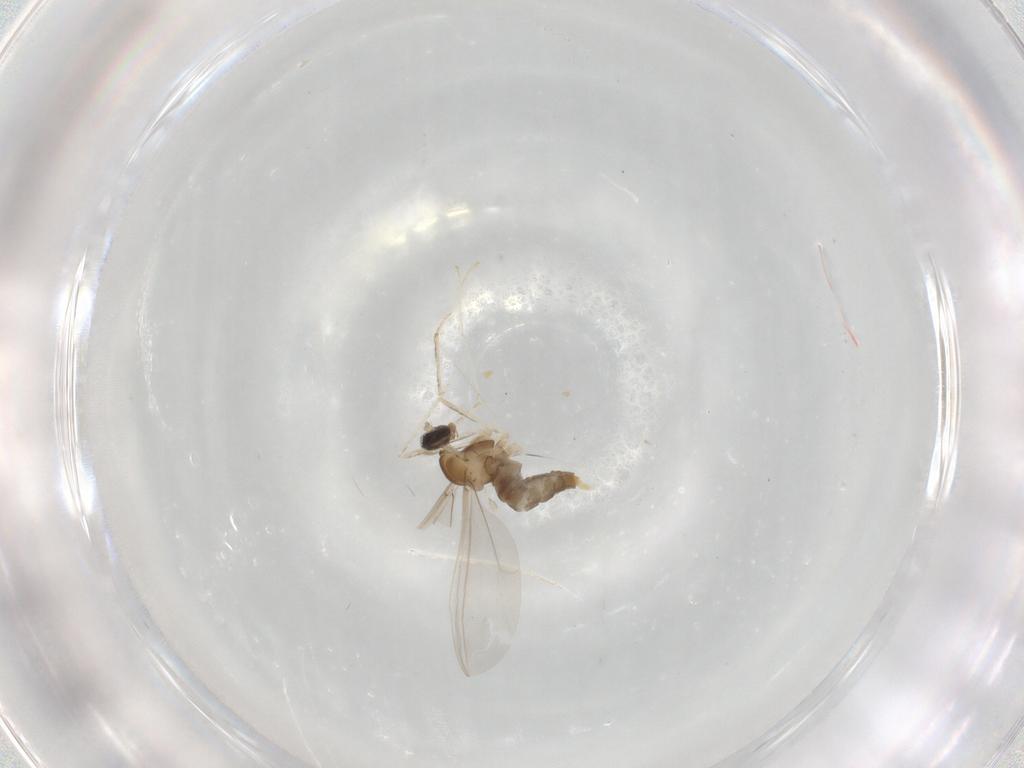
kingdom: Animalia
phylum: Arthropoda
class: Insecta
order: Diptera
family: Cecidomyiidae
